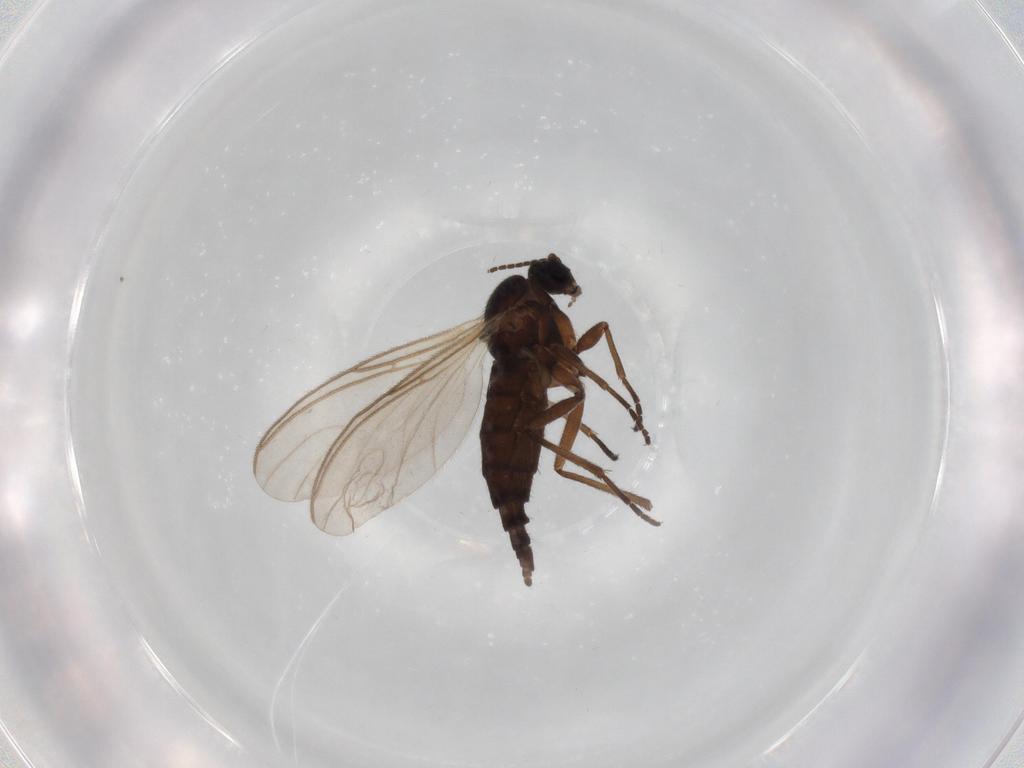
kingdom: Animalia
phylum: Arthropoda
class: Insecta
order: Diptera
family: Sciaridae
